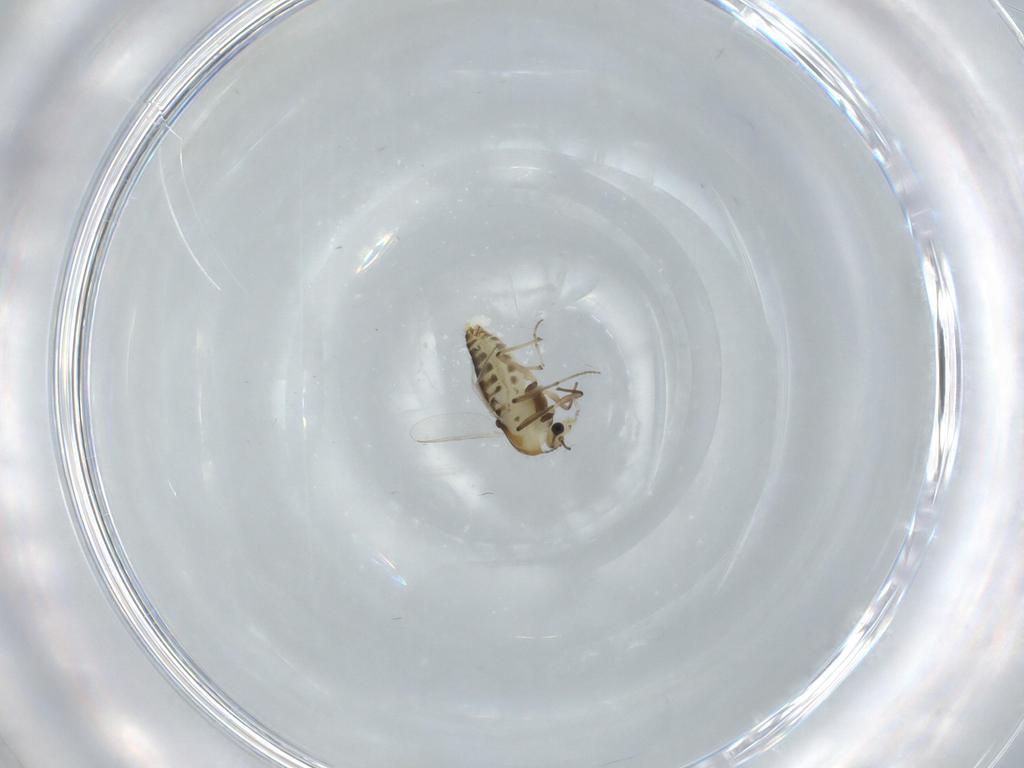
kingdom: Animalia
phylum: Arthropoda
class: Insecta
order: Diptera
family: Chironomidae
